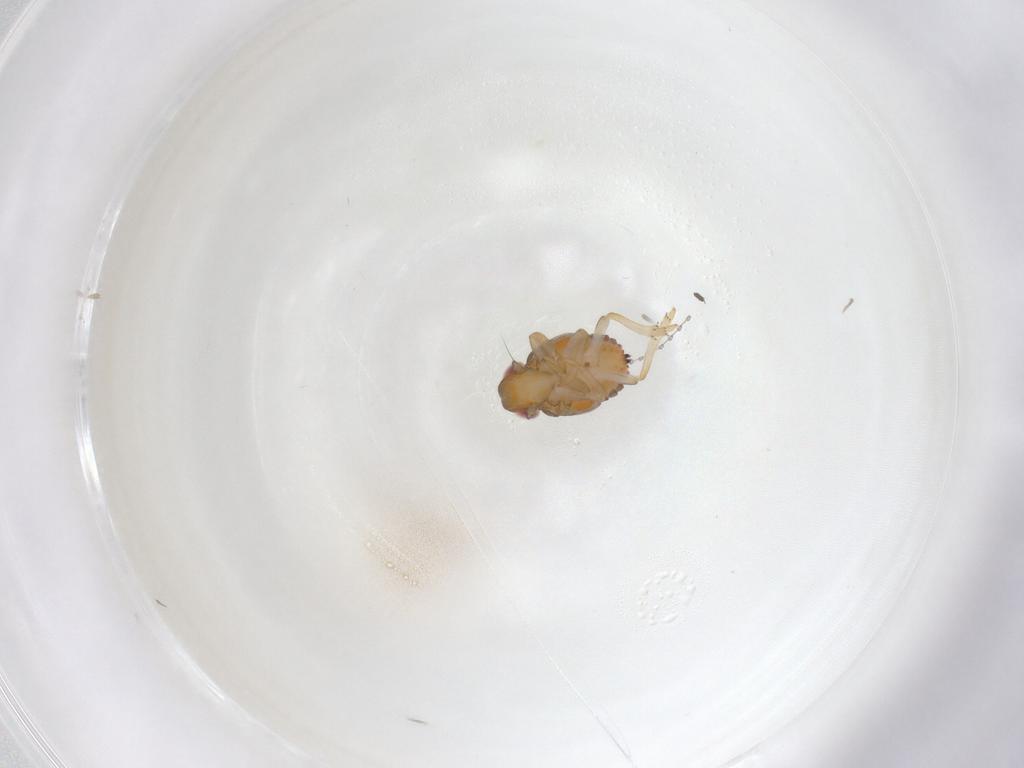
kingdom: Animalia
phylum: Arthropoda
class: Insecta
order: Hemiptera
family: Issidae
